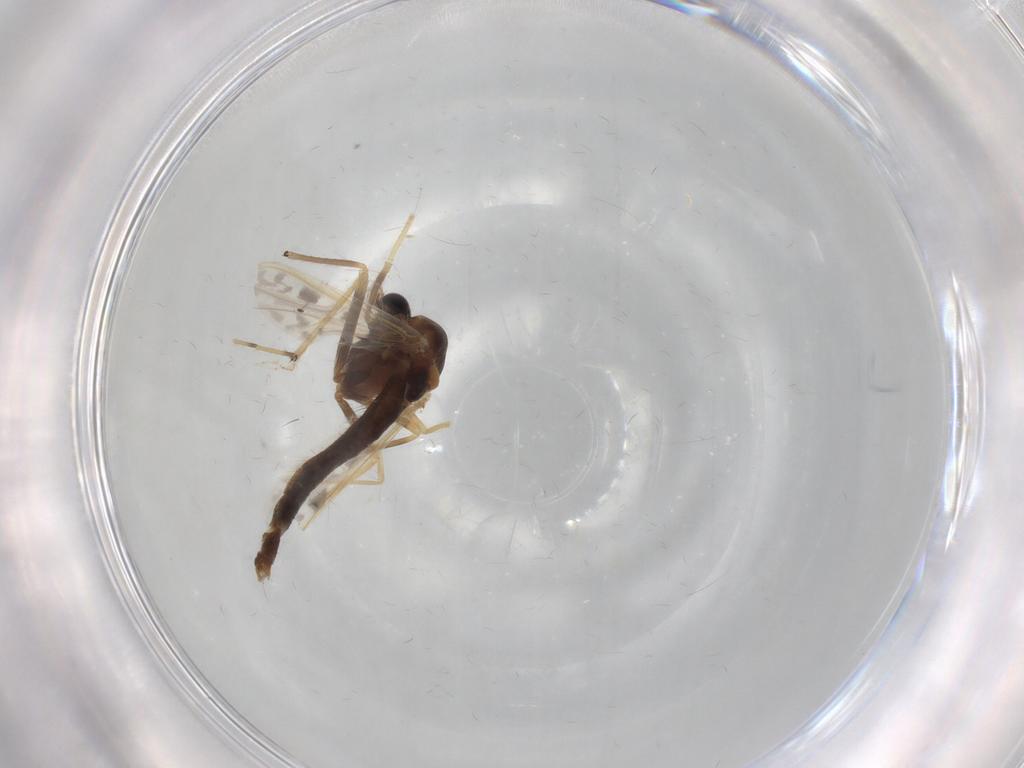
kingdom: Animalia
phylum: Arthropoda
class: Insecta
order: Diptera
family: Chironomidae
